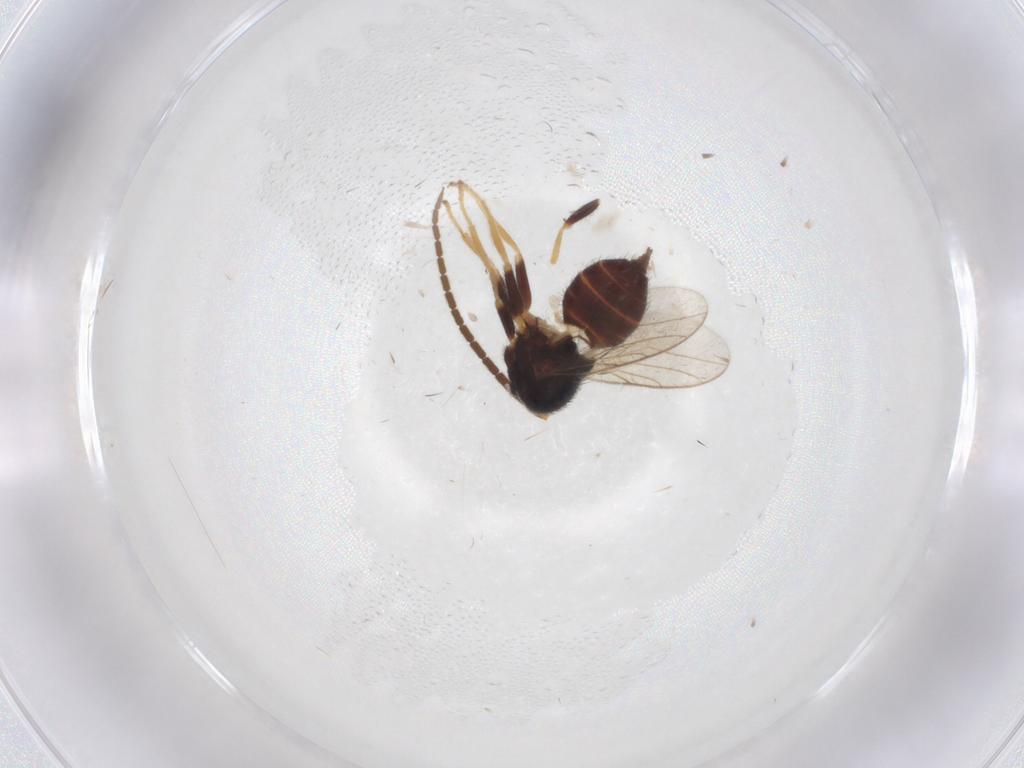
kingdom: Animalia
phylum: Arthropoda
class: Insecta
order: Diptera
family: Chloropidae
